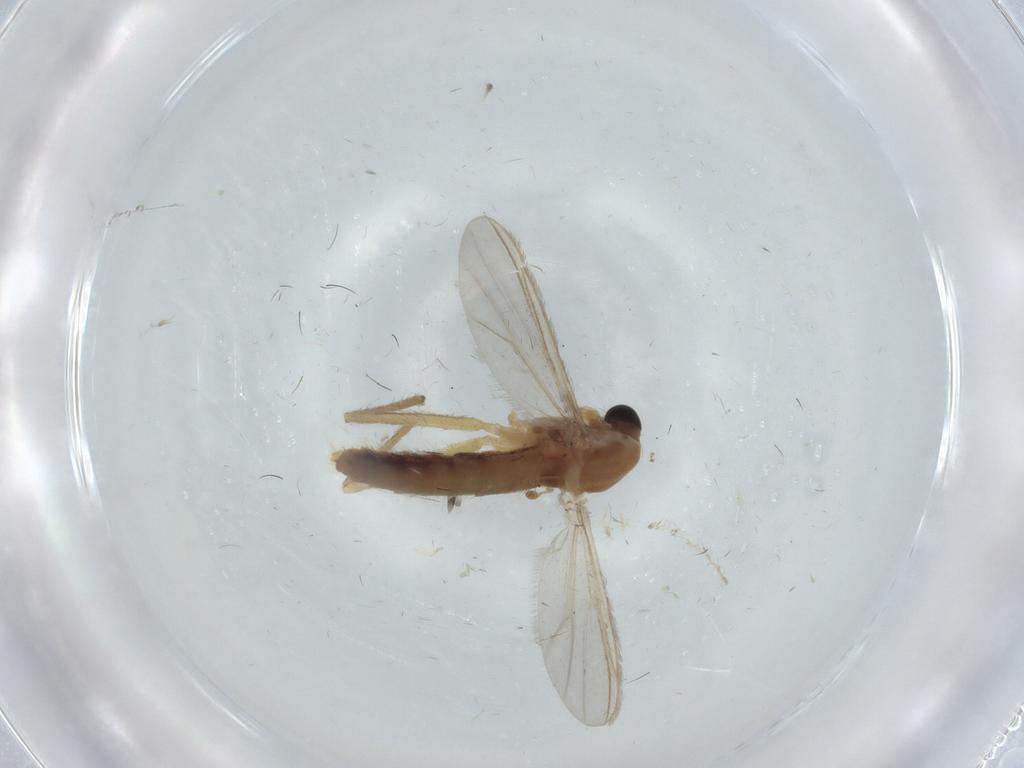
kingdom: Animalia
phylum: Arthropoda
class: Insecta
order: Diptera
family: Chironomidae
